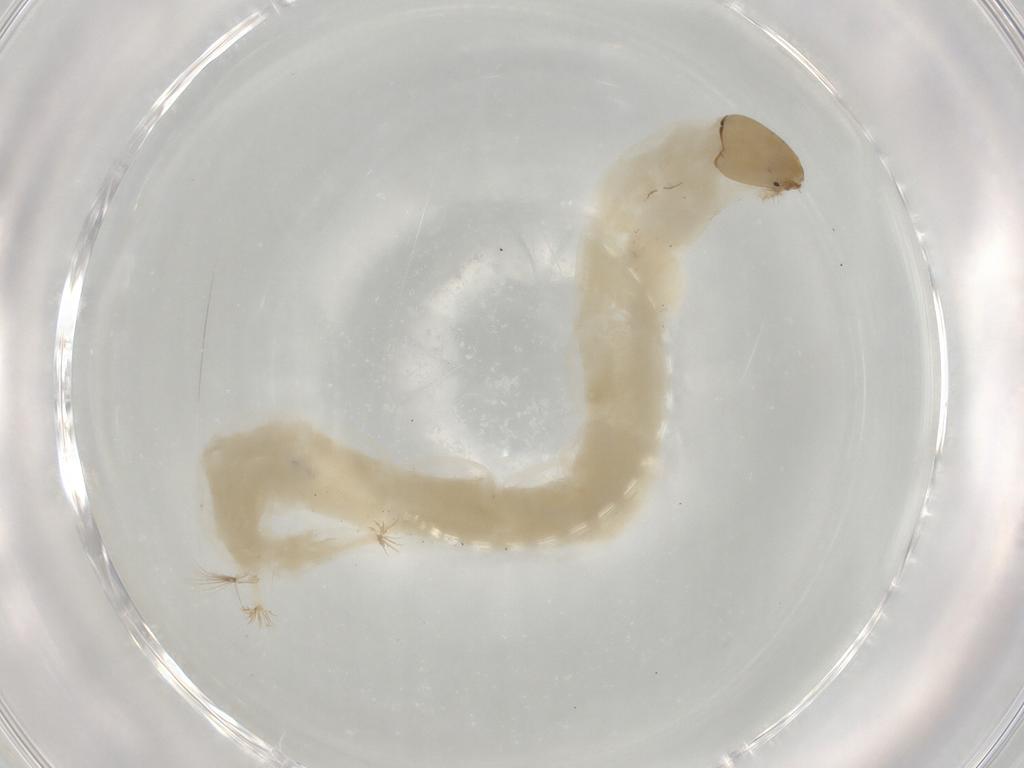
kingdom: Animalia
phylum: Arthropoda
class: Insecta
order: Diptera
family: Chironomidae
